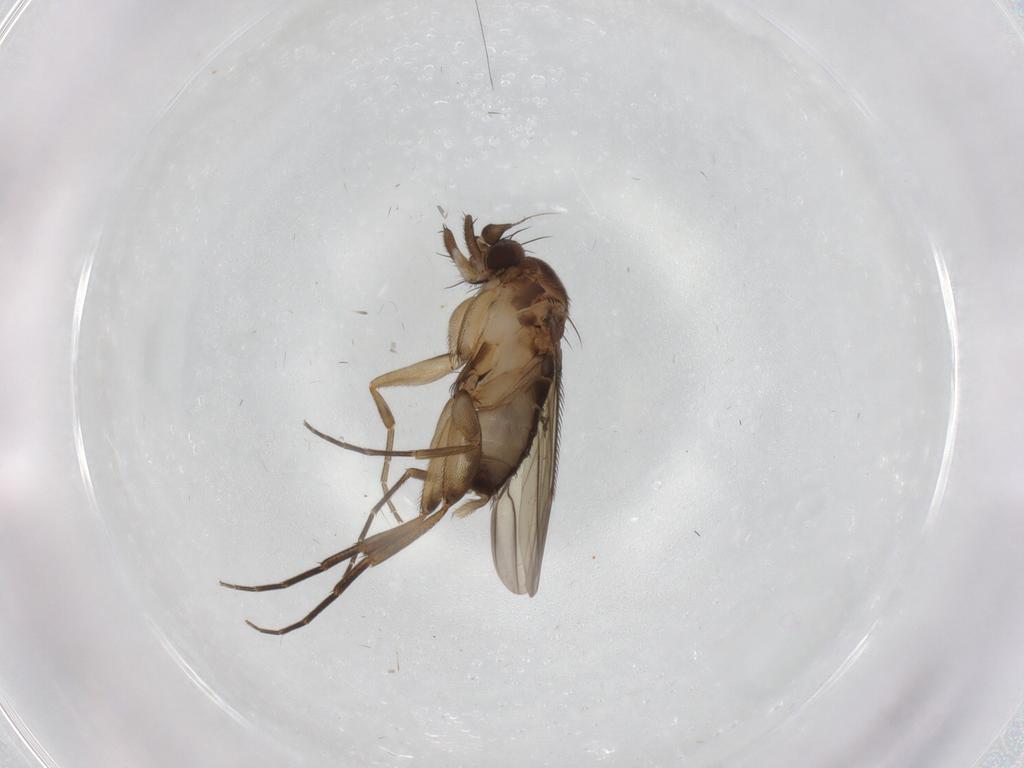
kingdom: Animalia
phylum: Arthropoda
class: Insecta
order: Diptera
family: Phoridae
